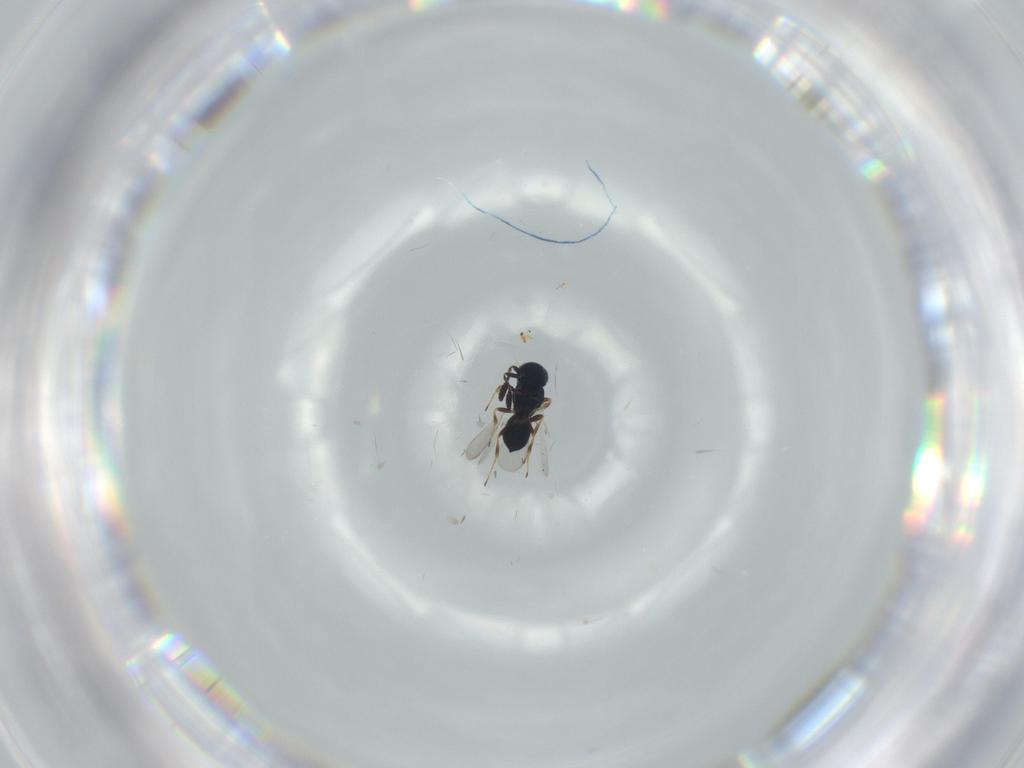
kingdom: Animalia
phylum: Arthropoda
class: Insecta
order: Hymenoptera
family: Scelionidae
